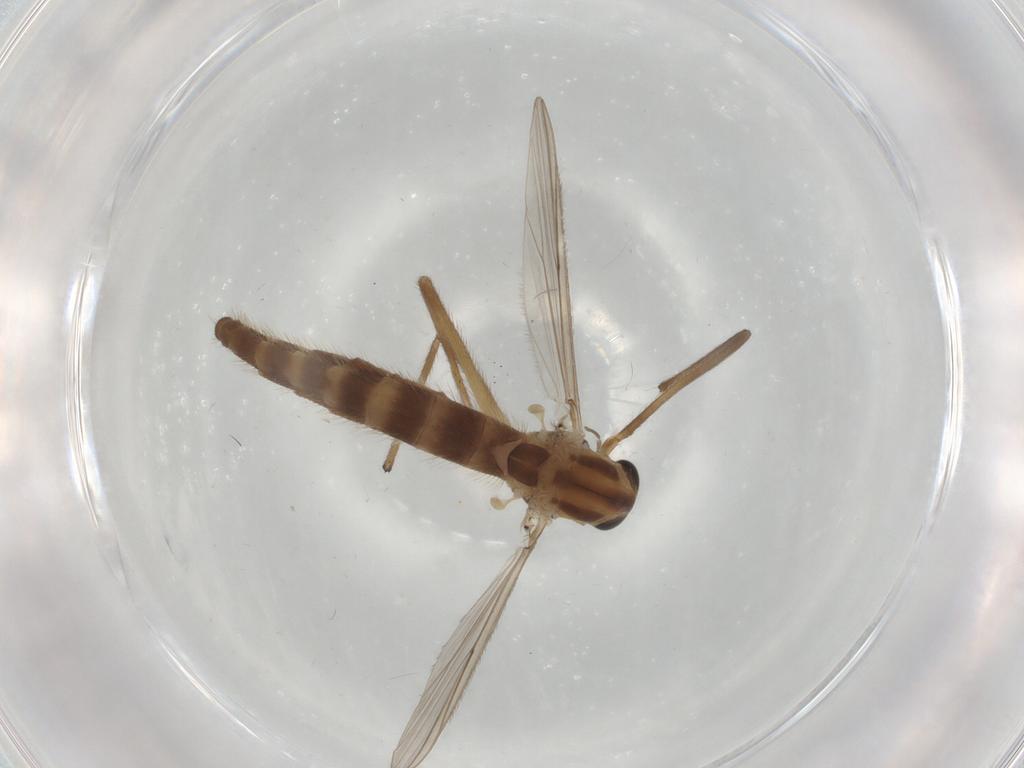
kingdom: Animalia
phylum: Arthropoda
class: Insecta
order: Diptera
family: Chironomidae
